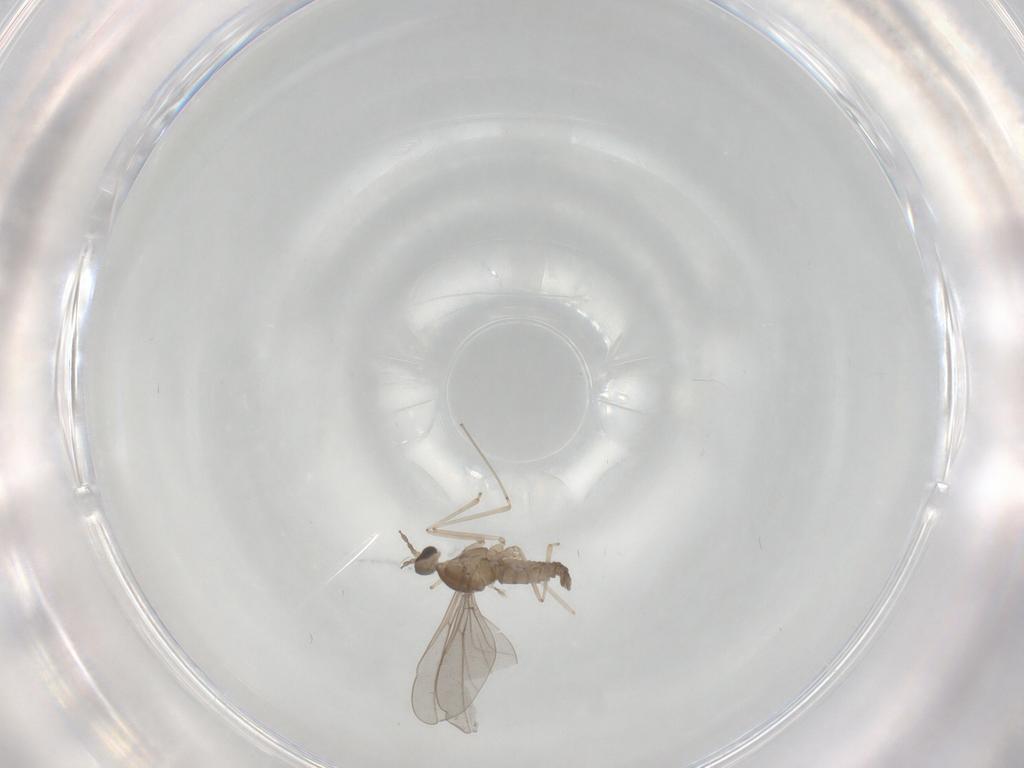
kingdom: Animalia
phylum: Arthropoda
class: Insecta
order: Diptera
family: Cecidomyiidae
